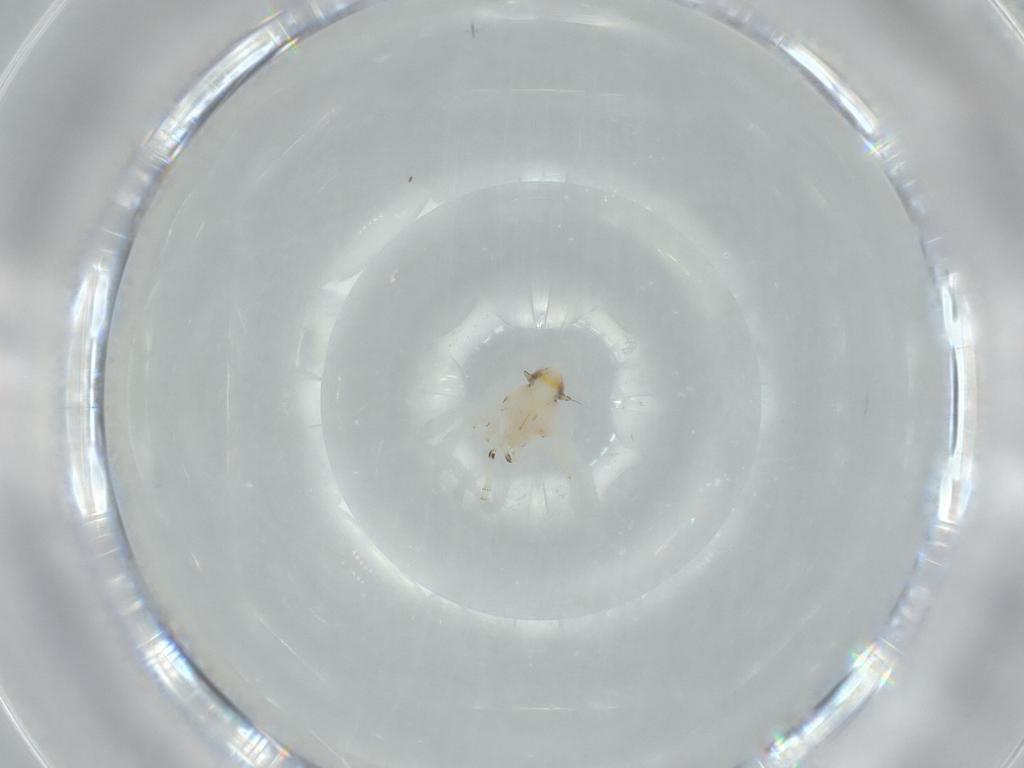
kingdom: Animalia
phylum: Arthropoda
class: Insecta
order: Hemiptera
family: Nogodinidae
